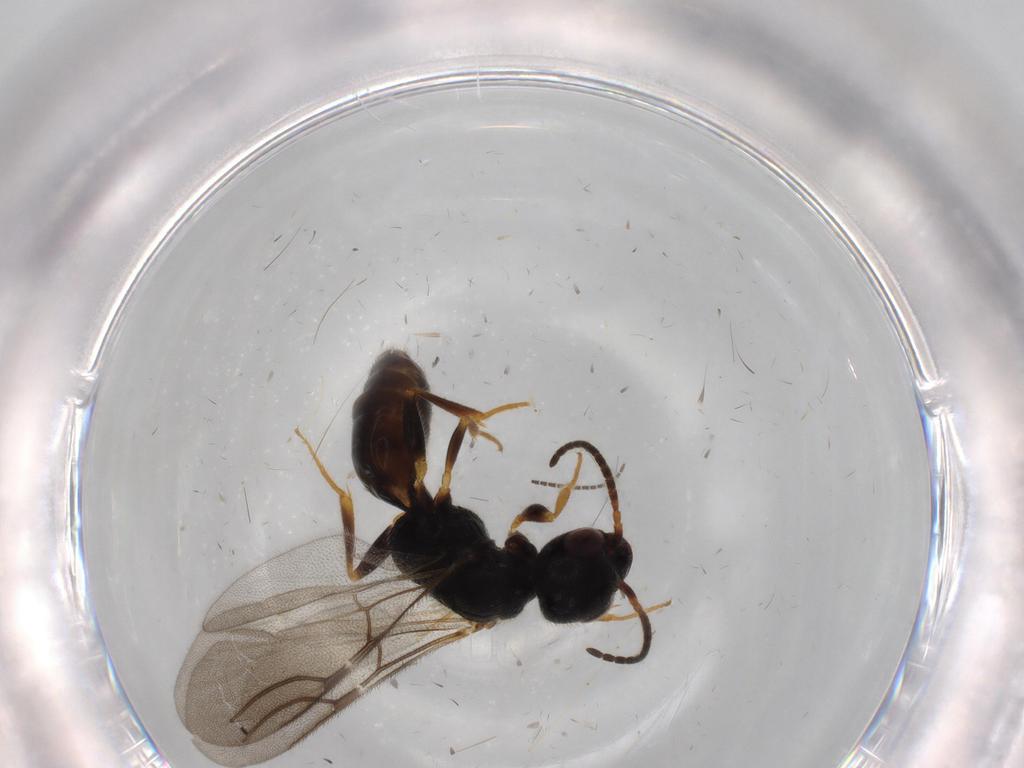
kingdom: Animalia
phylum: Arthropoda
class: Insecta
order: Hymenoptera
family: Bethylidae
